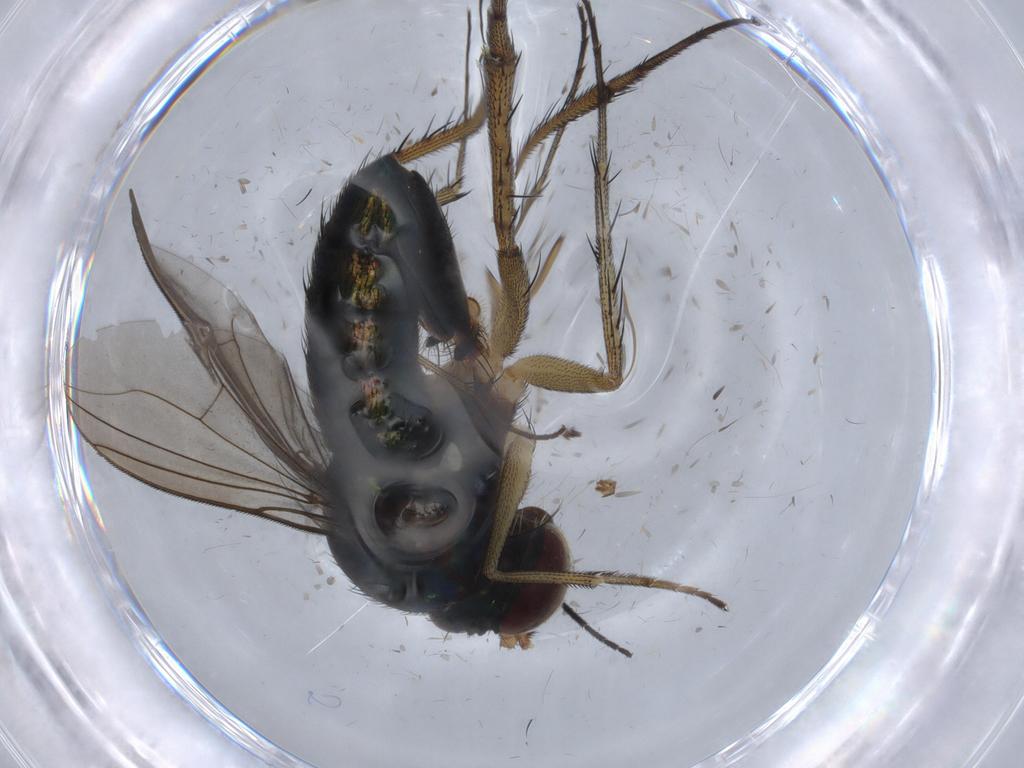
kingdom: Animalia
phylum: Arthropoda
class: Insecta
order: Diptera
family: Sciaridae
